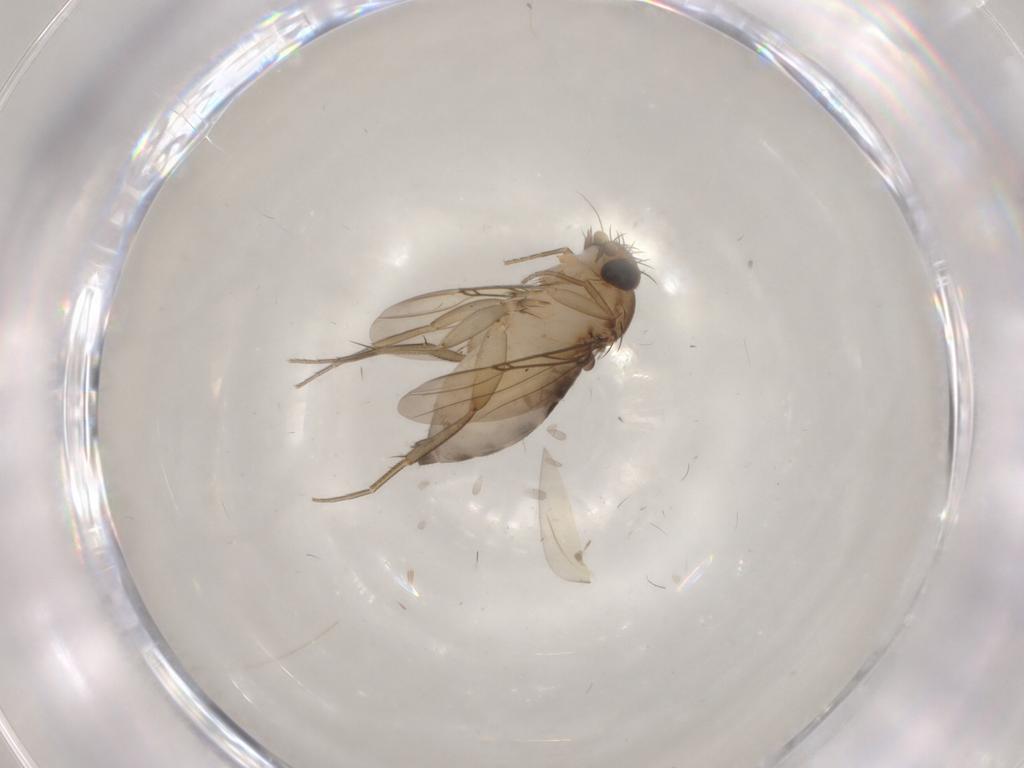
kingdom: Animalia
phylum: Arthropoda
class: Insecta
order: Diptera
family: Phoridae
